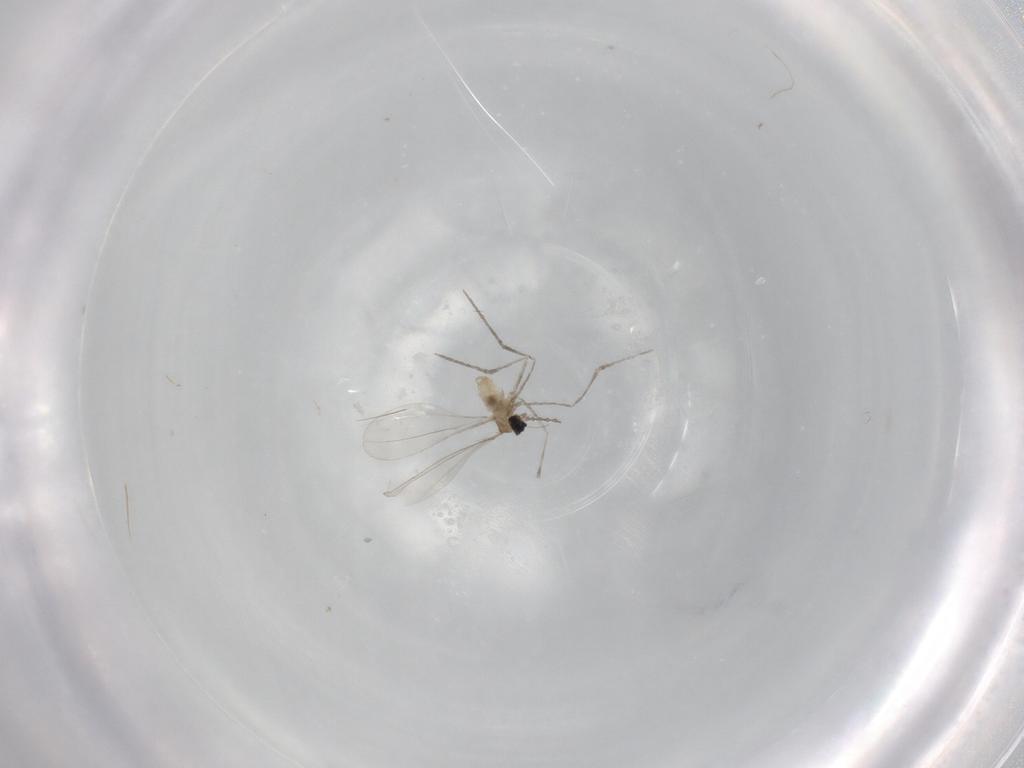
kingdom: Animalia
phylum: Arthropoda
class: Insecta
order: Diptera
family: Cecidomyiidae
